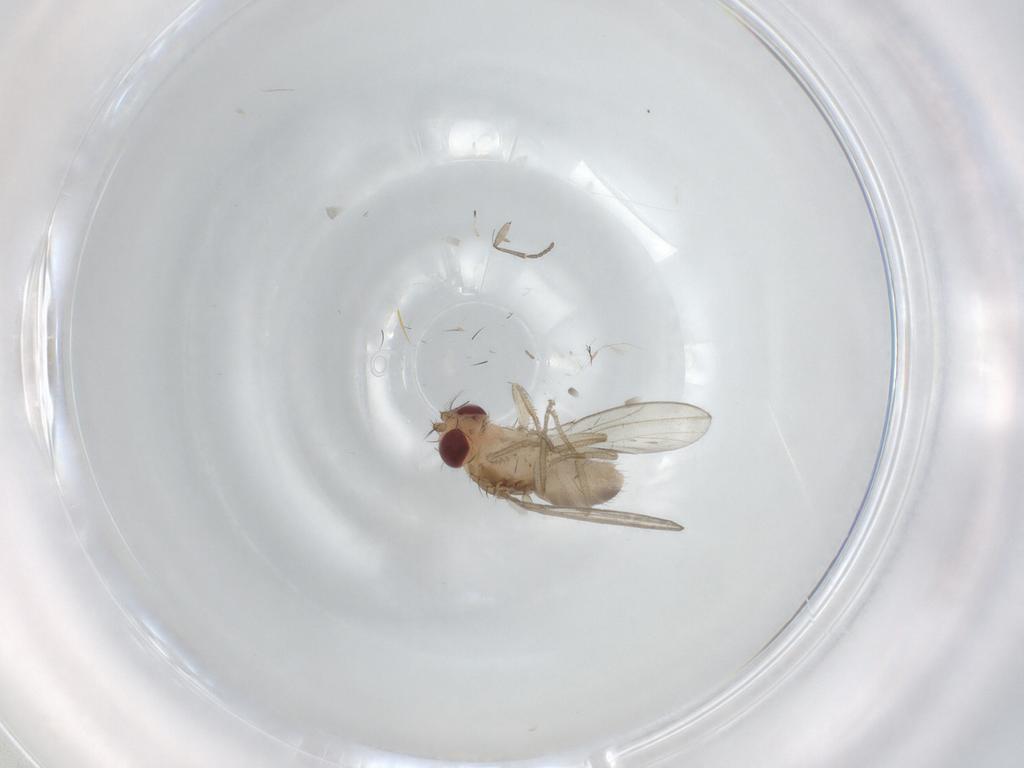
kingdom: Animalia
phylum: Arthropoda
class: Insecta
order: Diptera
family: Drosophilidae
